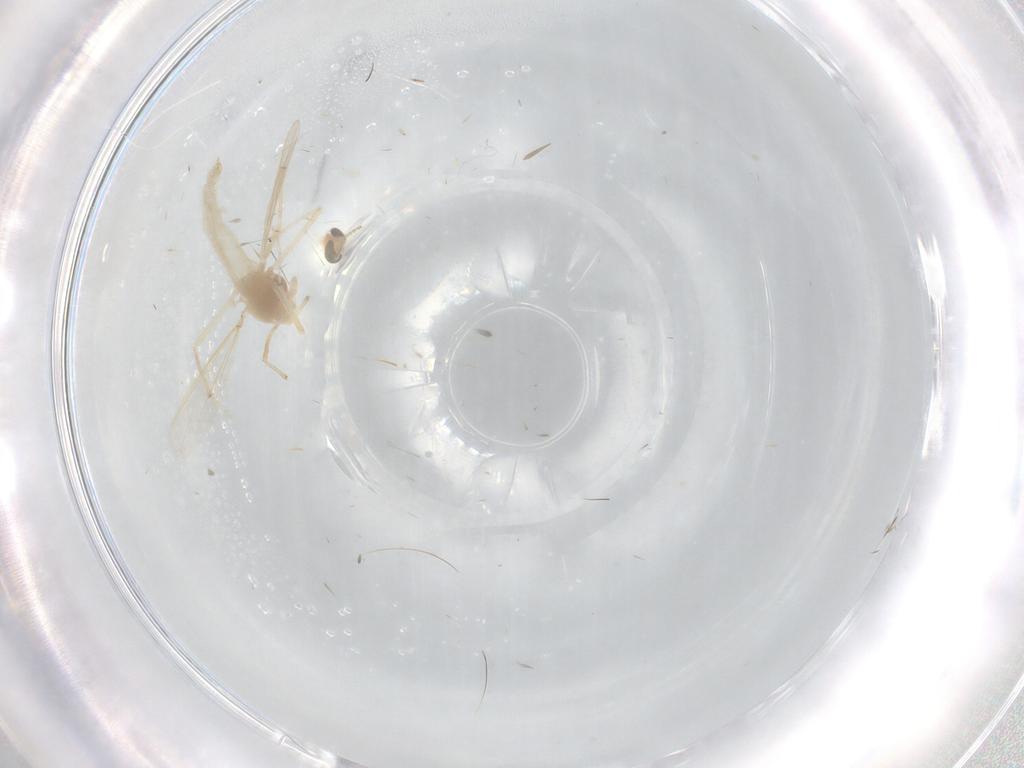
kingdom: Animalia
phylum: Arthropoda
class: Insecta
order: Diptera
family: Chironomidae
